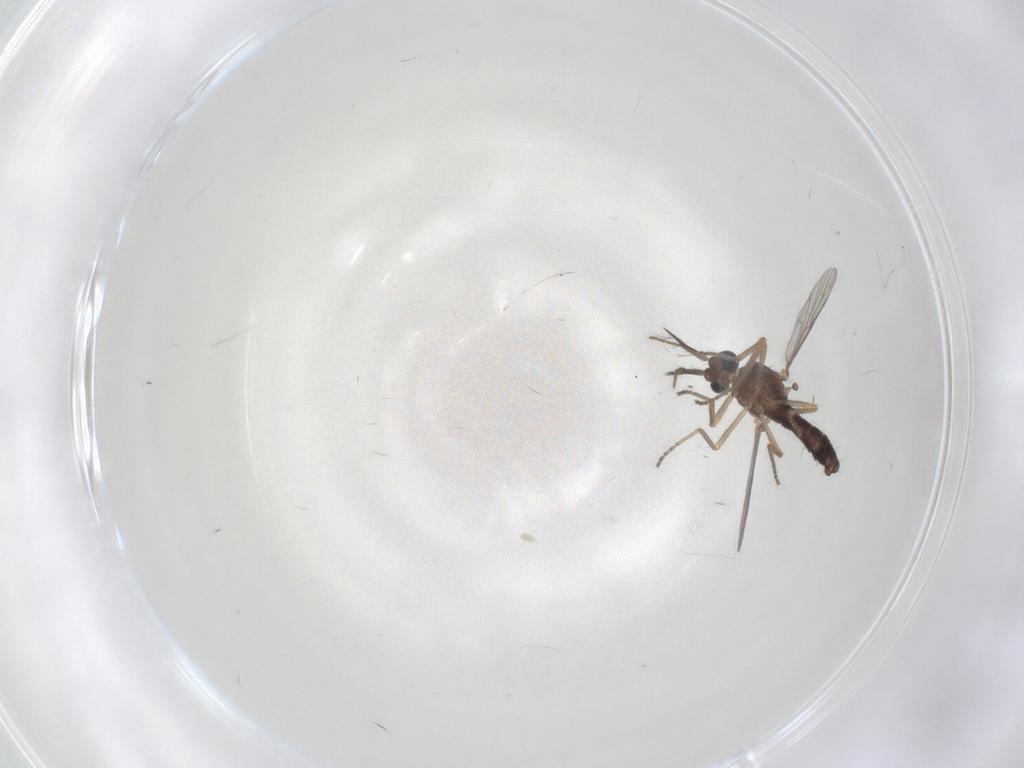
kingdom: Animalia
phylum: Arthropoda
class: Insecta
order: Diptera
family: Ceratopogonidae
